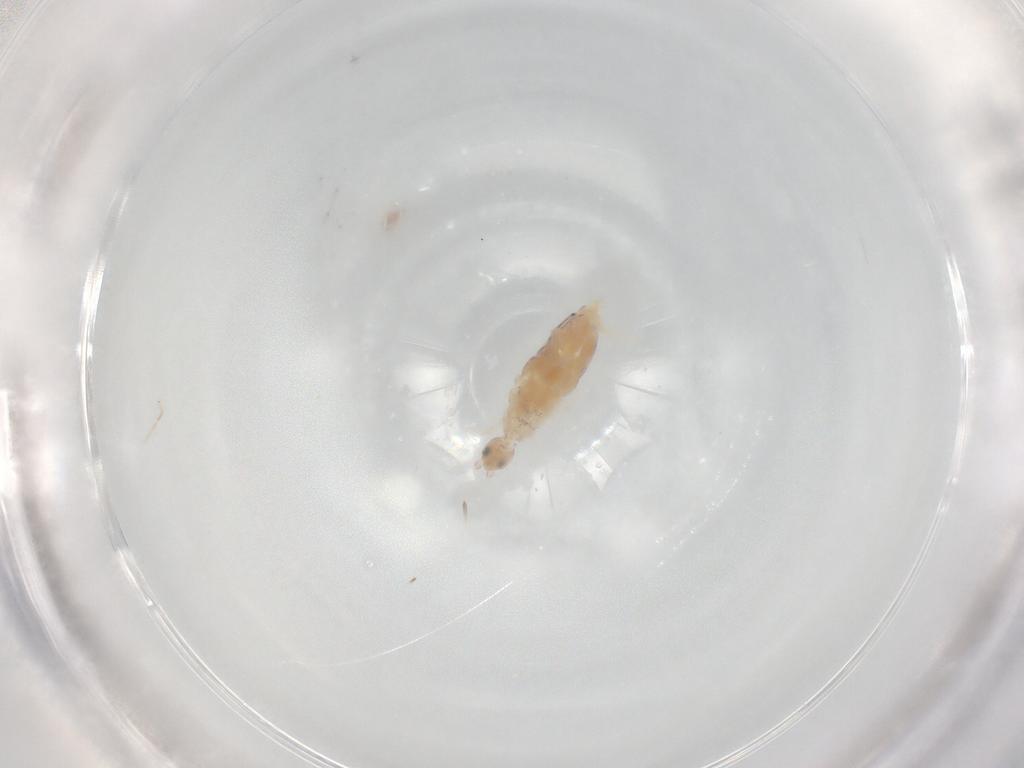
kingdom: Animalia
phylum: Arthropoda
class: Collembola
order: Entomobryomorpha
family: Entomobryidae
